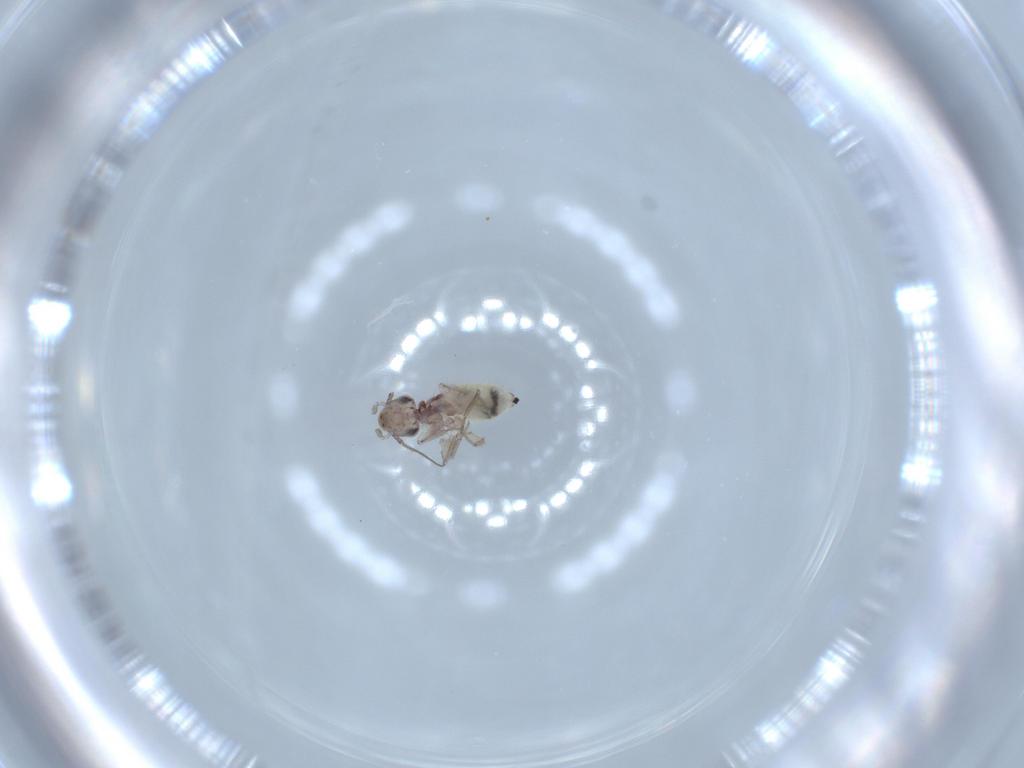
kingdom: Animalia
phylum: Arthropoda
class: Insecta
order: Psocodea
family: Lepidopsocidae
